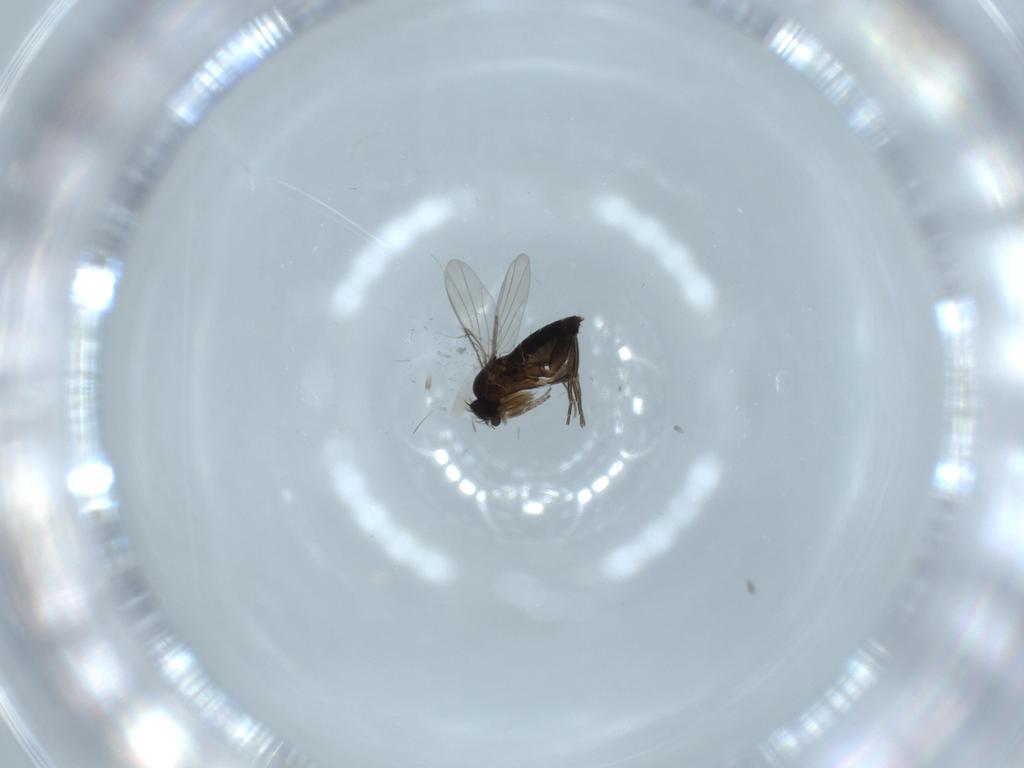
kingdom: Animalia
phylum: Arthropoda
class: Insecta
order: Diptera
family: Phoridae
